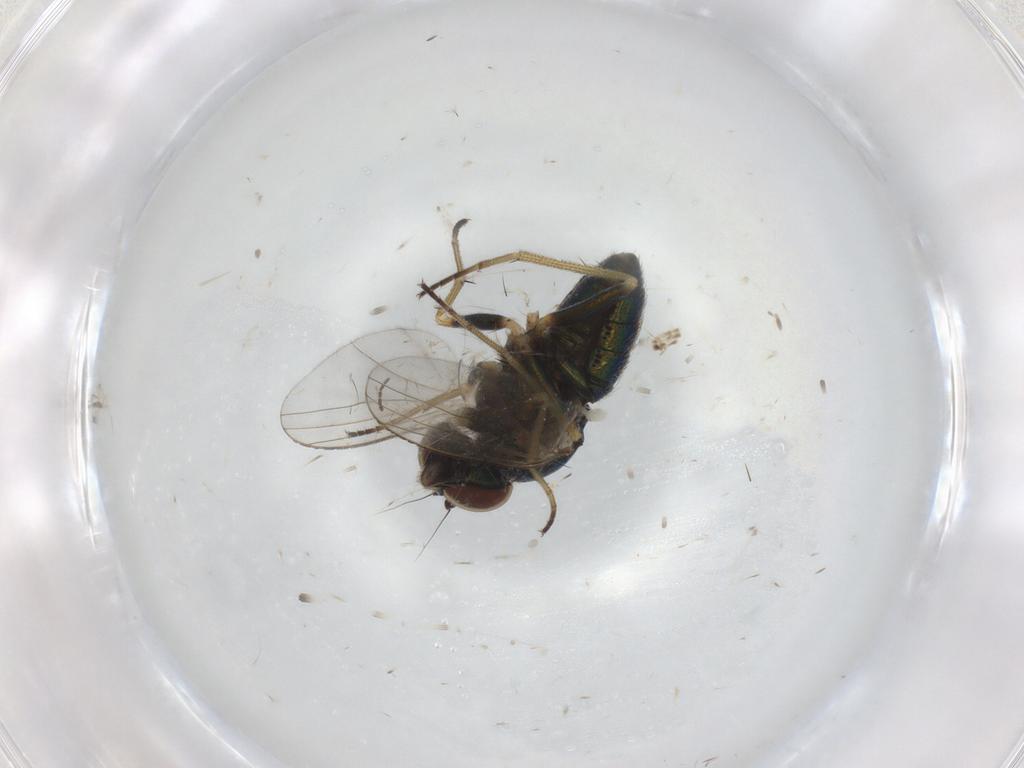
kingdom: Animalia
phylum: Arthropoda
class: Insecta
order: Diptera
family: Dolichopodidae
